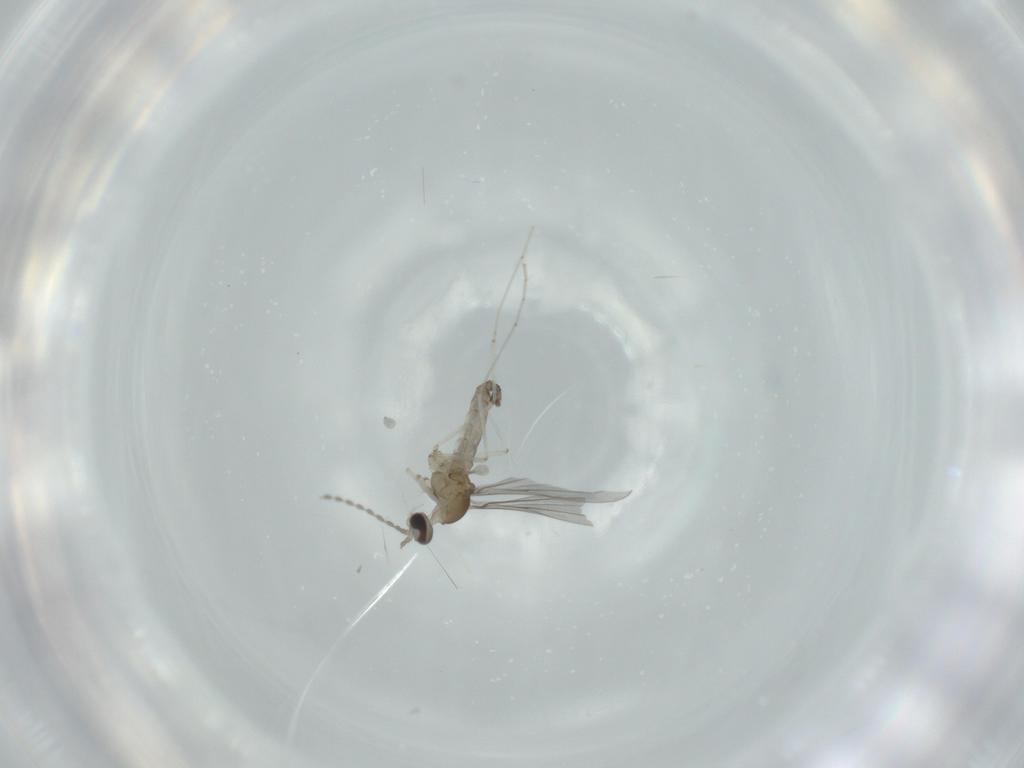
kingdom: Animalia
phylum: Arthropoda
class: Insecta
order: Diptera
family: Cecidomyiidae
